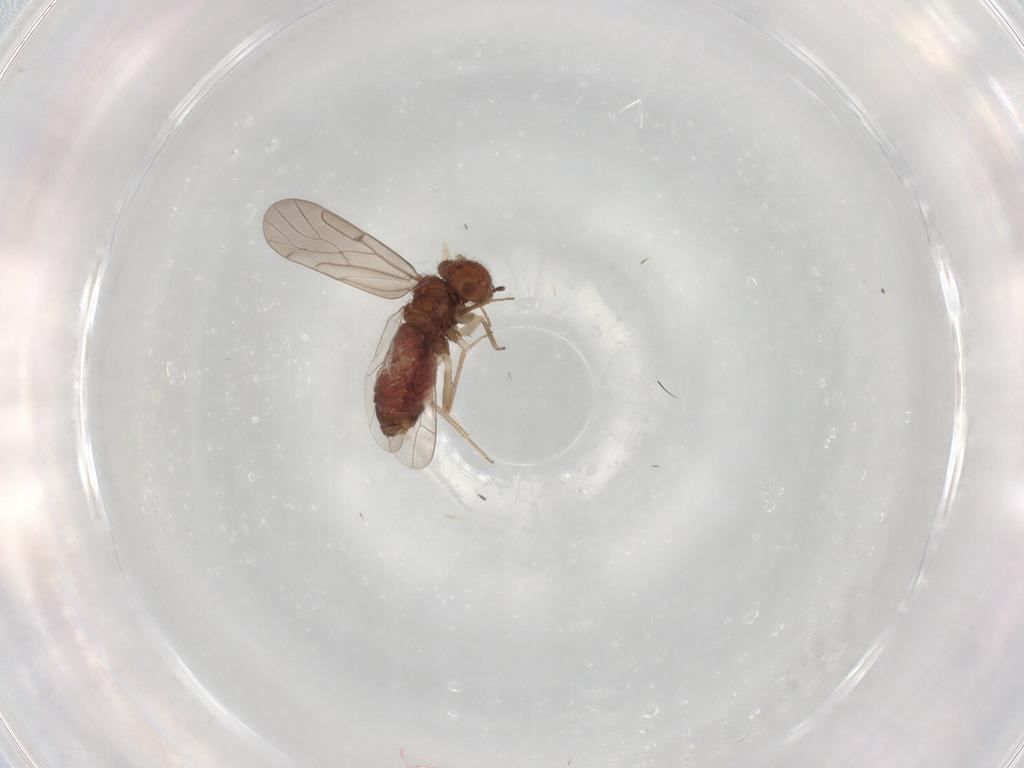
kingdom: Animalia
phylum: Arthropoda
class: Insecta
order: Psocodea
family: Ectopsocidae
